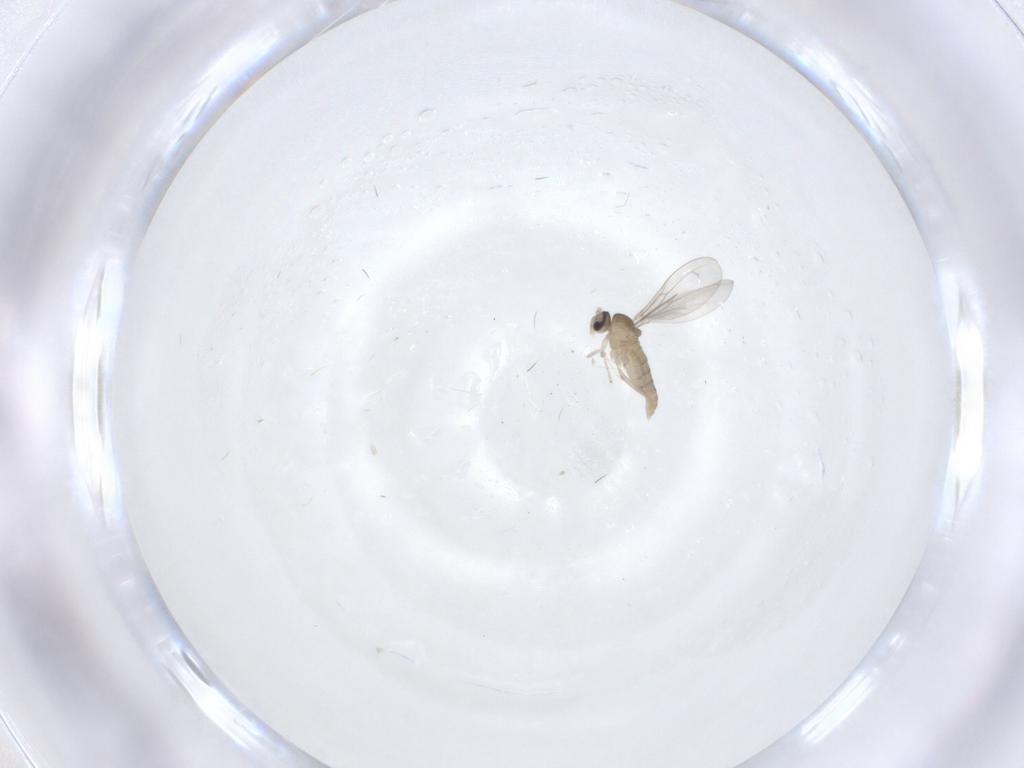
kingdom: Animalia
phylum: Arthropoda
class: Insecta
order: Diptera
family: Cecidomyiidae
